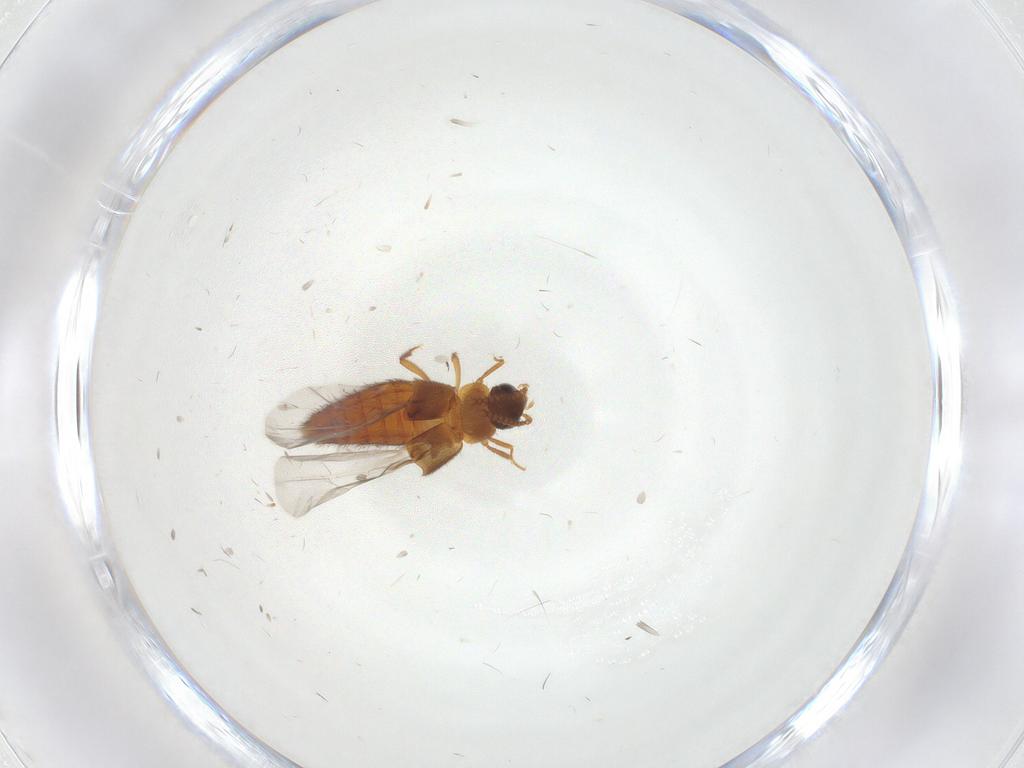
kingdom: Animalia
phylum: Arthropoda
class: Insecta
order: Coleoptera
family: Staphylinidae
